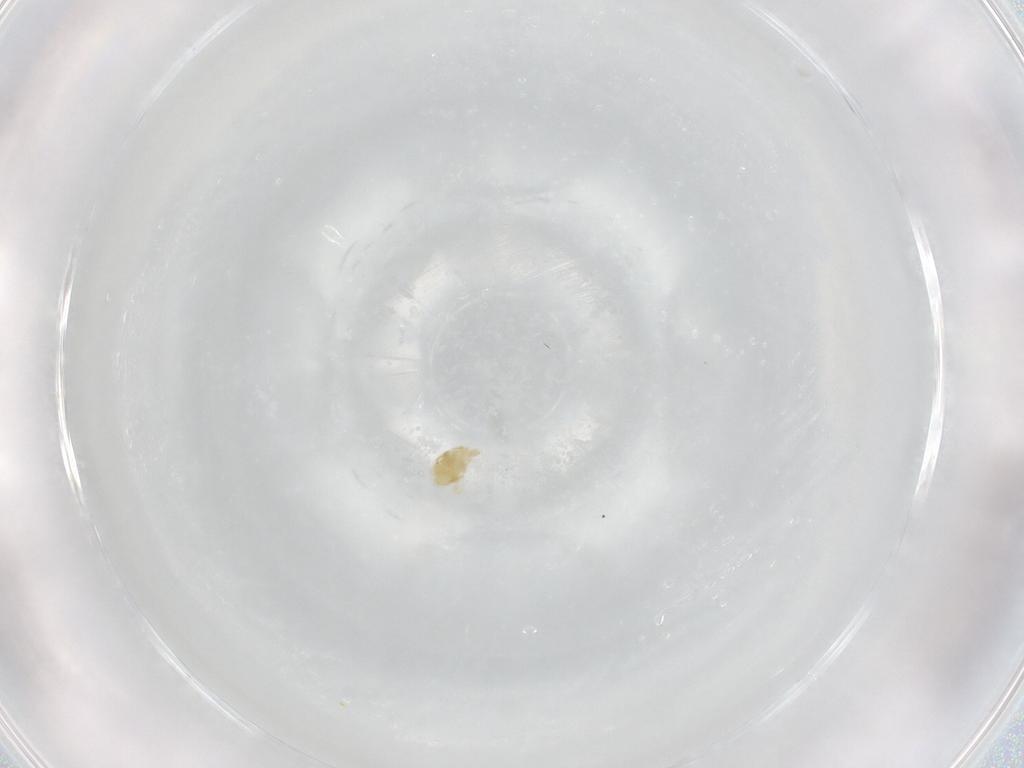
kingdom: Animalia
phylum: Arthropoda
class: Arachnida
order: Trombidiformes
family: Eupodidae
